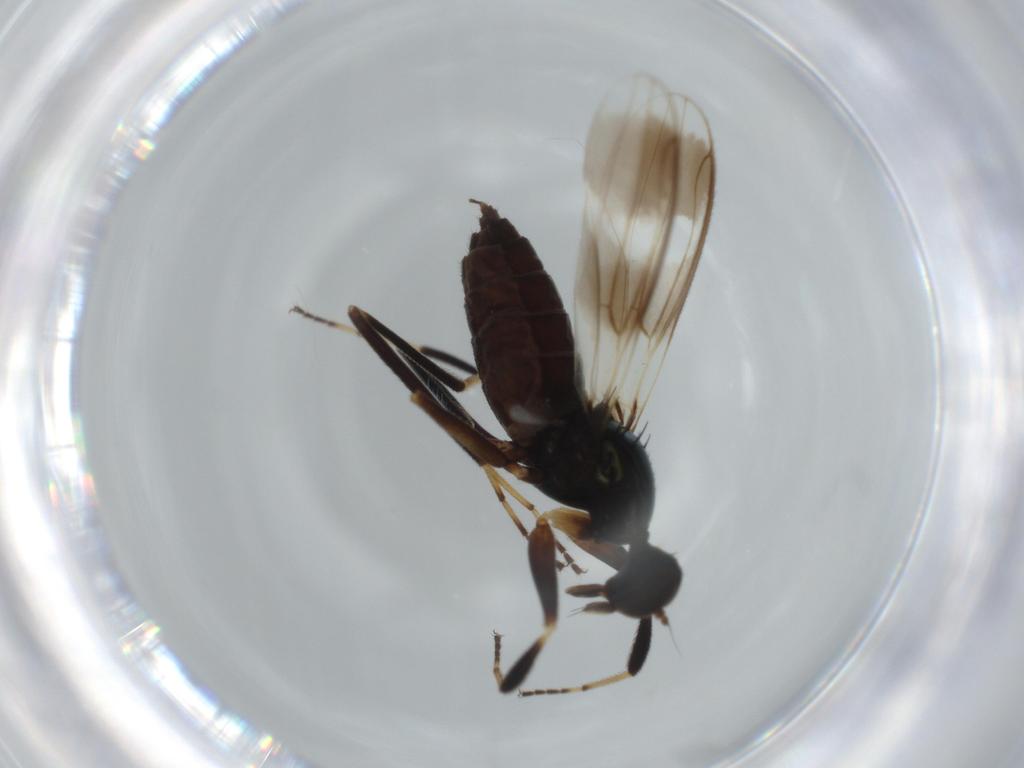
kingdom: Animalia
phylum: Arthropoda
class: Insecta
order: Diptera
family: Hybotidae
